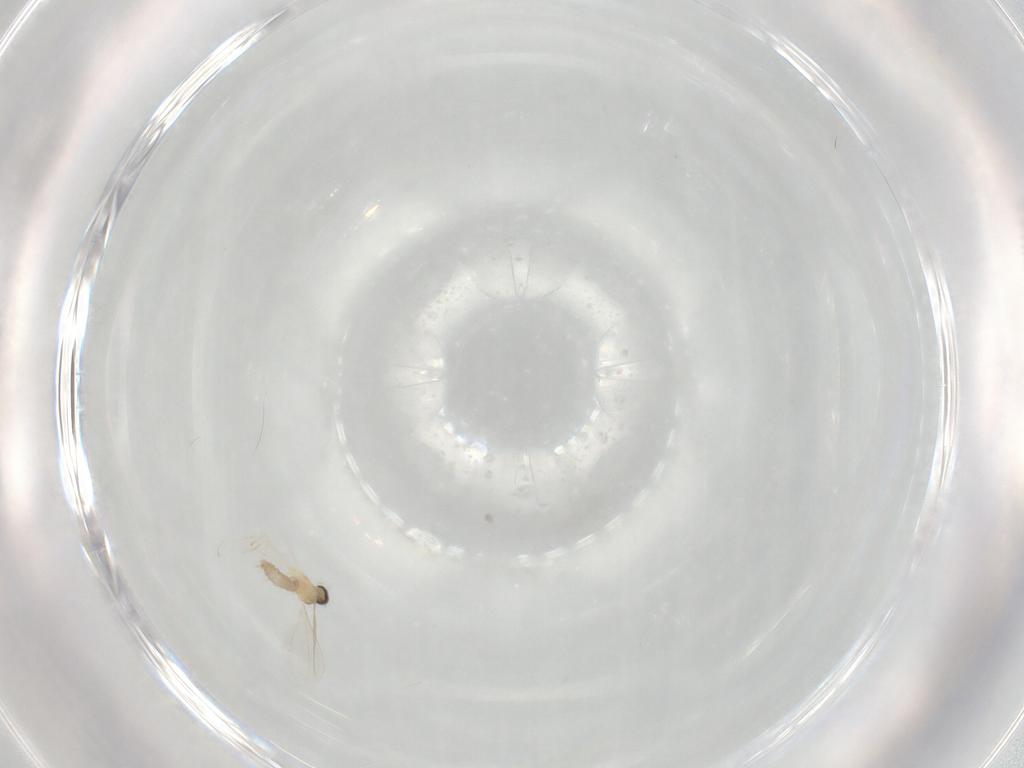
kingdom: Animalia
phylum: Arthropoda
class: Insecta
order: Diptera
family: Cecidomyiidae
